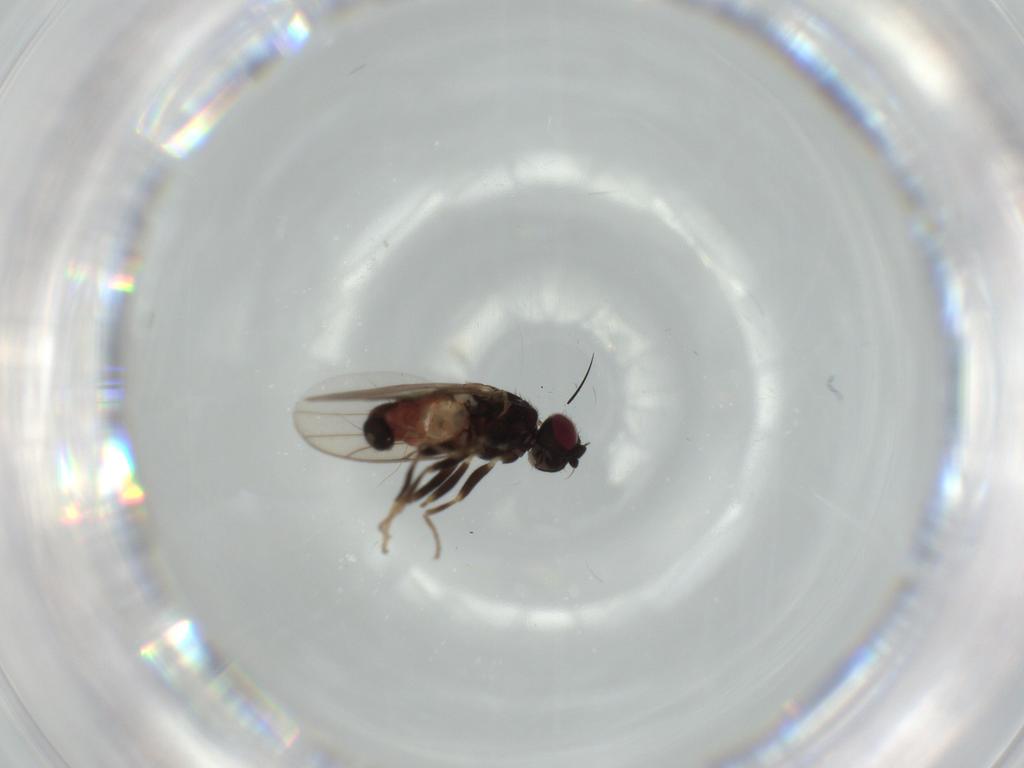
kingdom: Animalia
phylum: Arthropoda
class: Insecta
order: Diptera
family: Chloropidae
